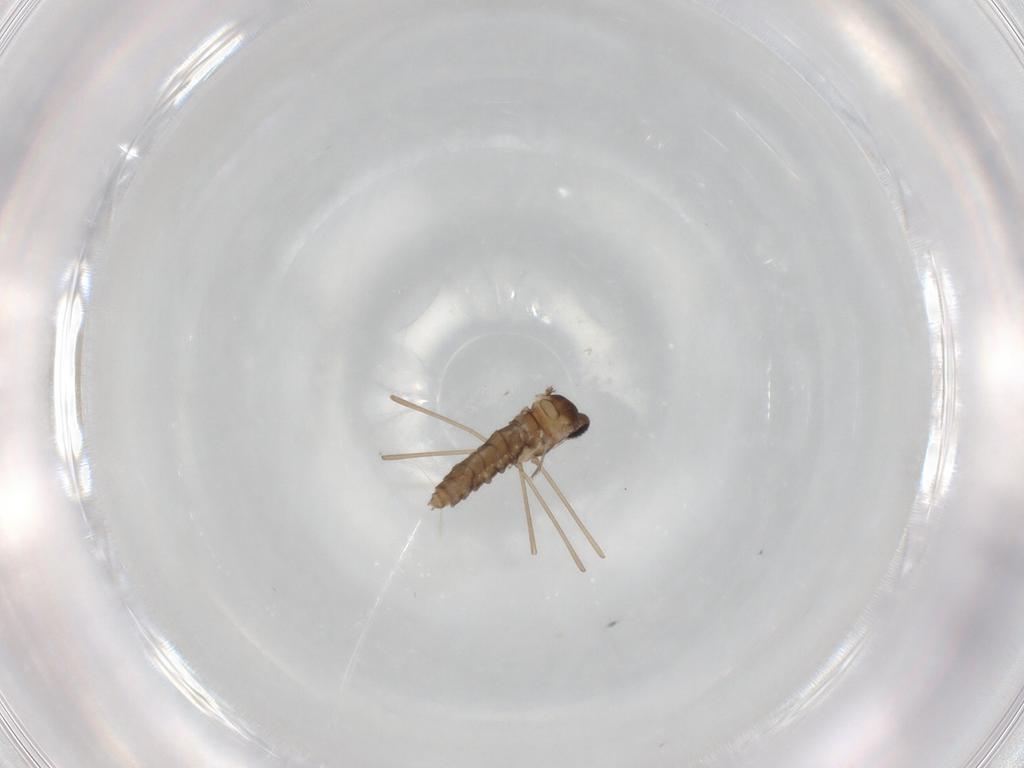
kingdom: Animalia
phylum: Arthropoda
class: Insecta
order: Diptera
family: Cecidomyiidae
